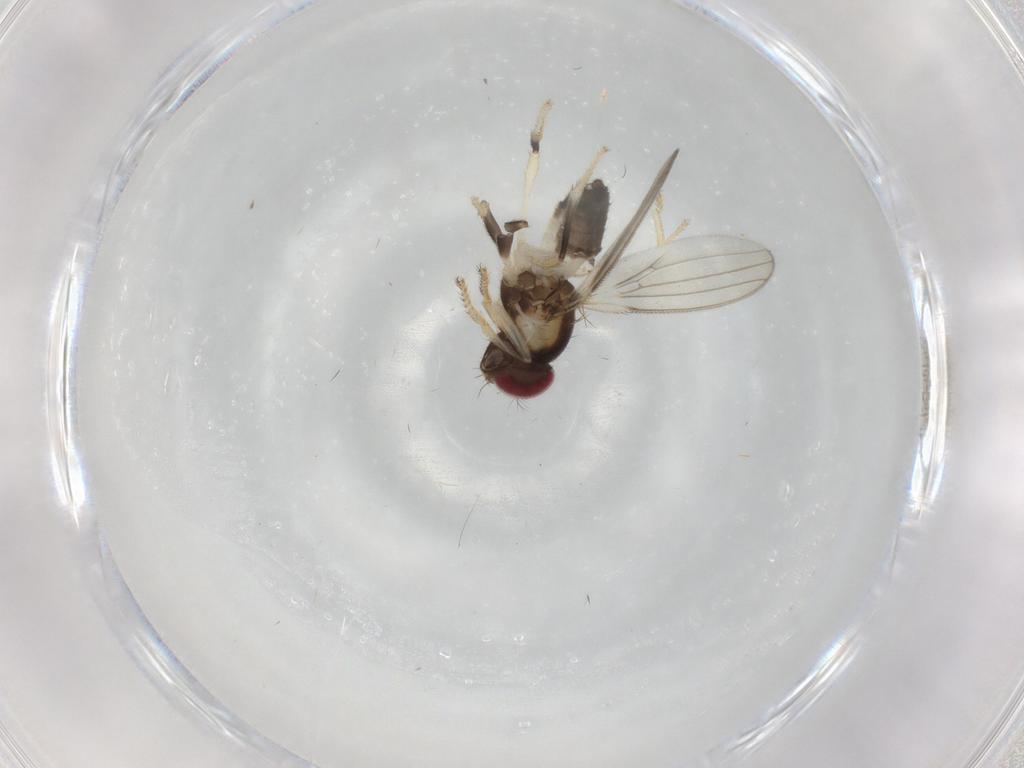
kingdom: Animalia
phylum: Arthropoda
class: Insecta
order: Diptera
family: Periscelididae
